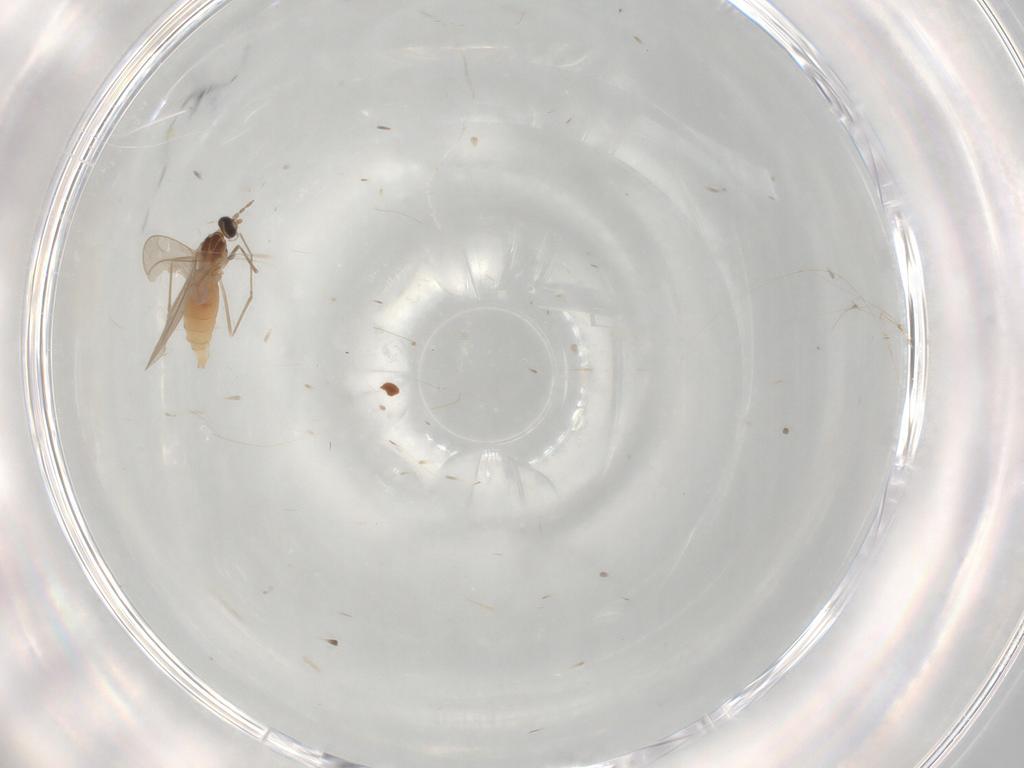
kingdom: Animalia
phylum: Arthropoda
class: Insecta
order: Diptera
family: Cecidomyiidae
